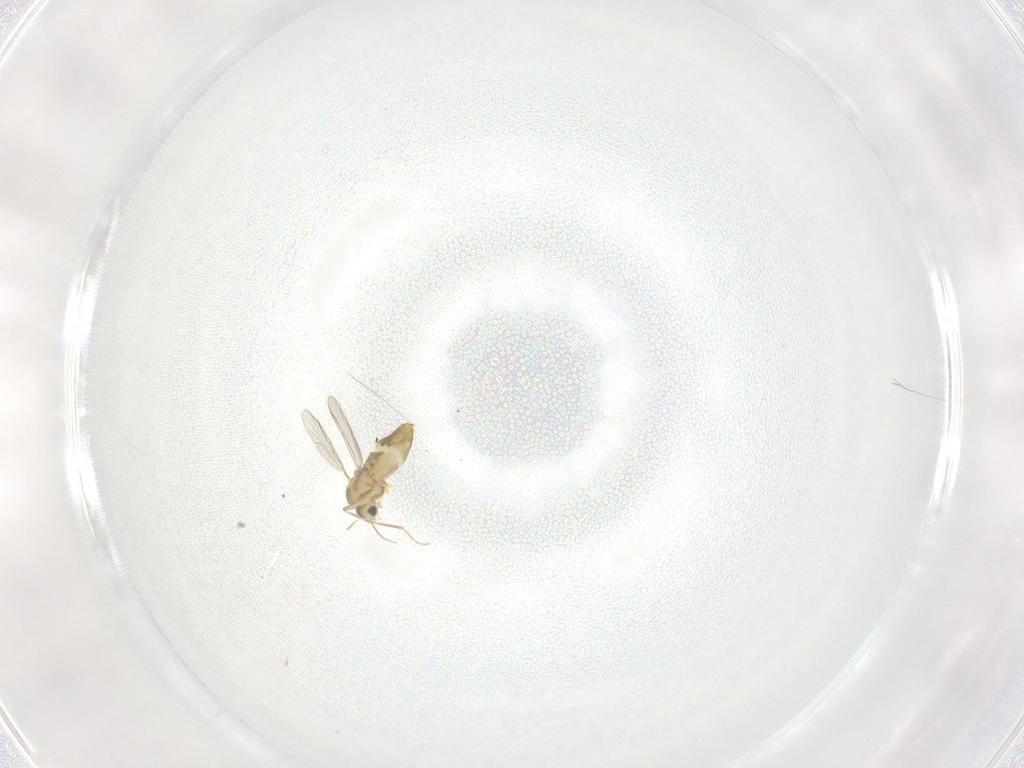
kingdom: Animalia
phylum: Arthropoda
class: Insecta
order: Diptera
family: Chironomidae
